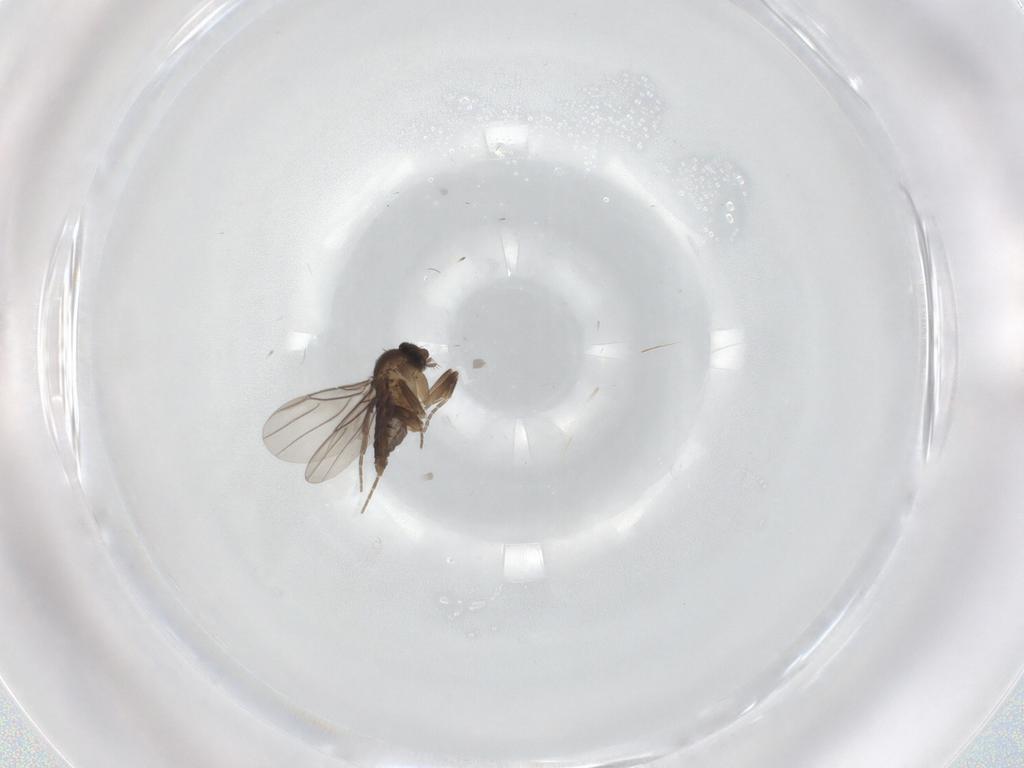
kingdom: Animalia
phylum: Arthropoda
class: Insecta
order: Diptera
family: Phoridae
